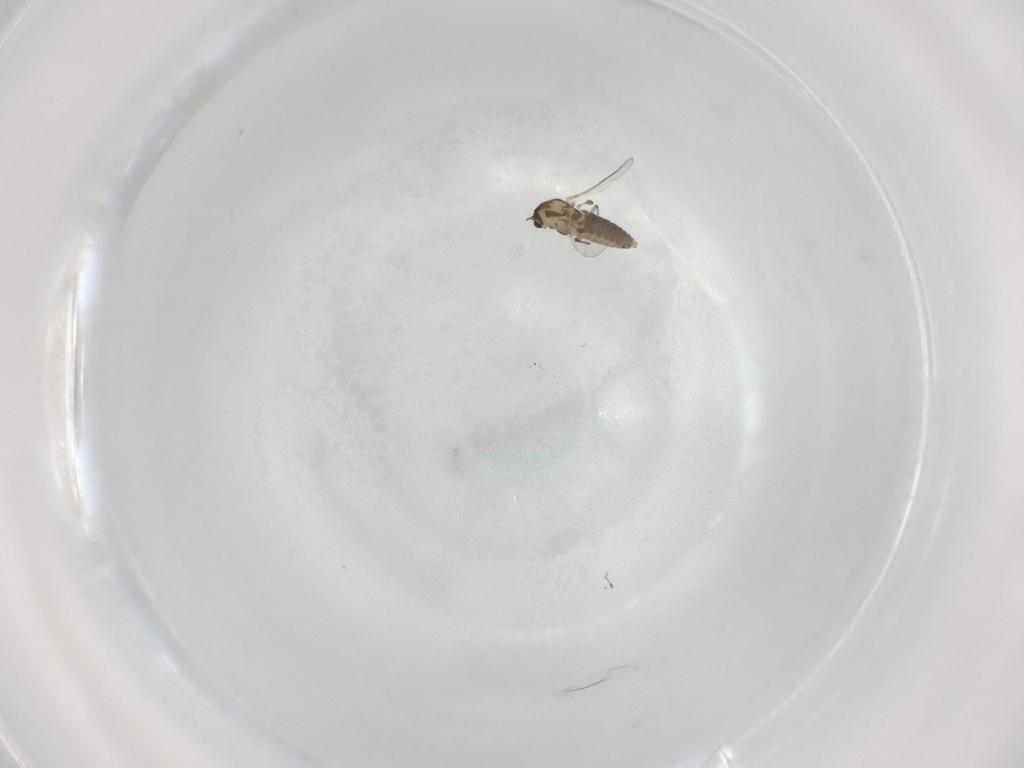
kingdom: Animalia
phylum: Arthropoda
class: Insecta
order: Diptera
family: Chironomidae
